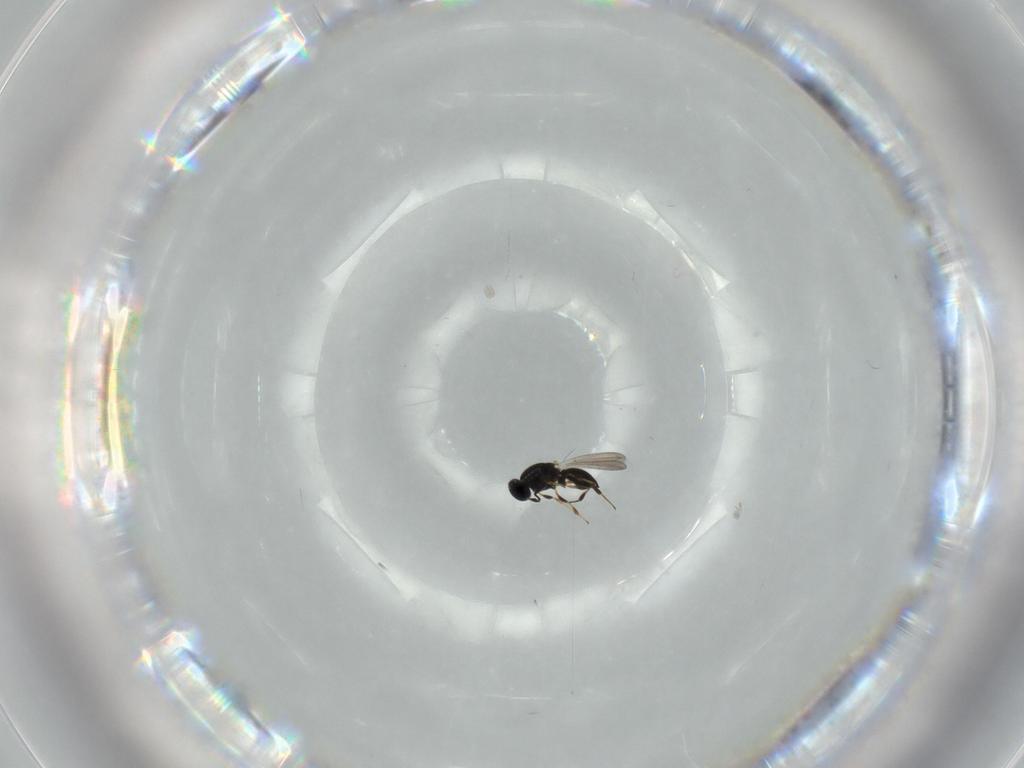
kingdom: Animalia
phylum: Arthropoda
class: Insecta
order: Hymenoptera
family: Platygastridae
